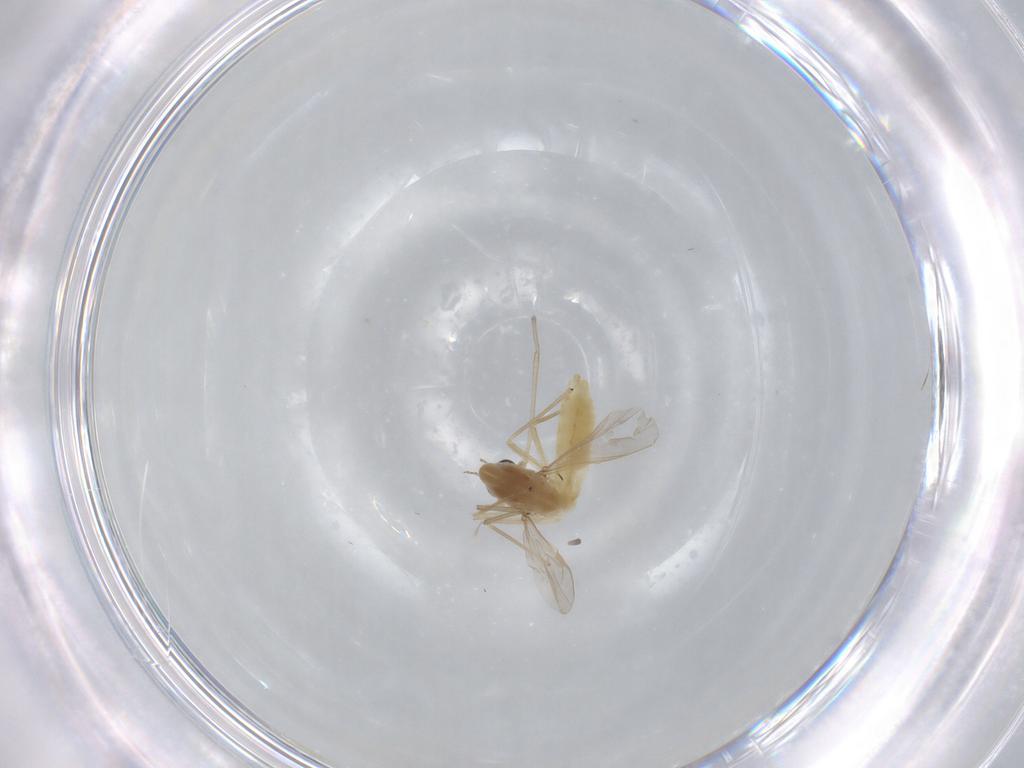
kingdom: Animalia
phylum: Arthropoda
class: Insecta
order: Diptera
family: Chironomidae
